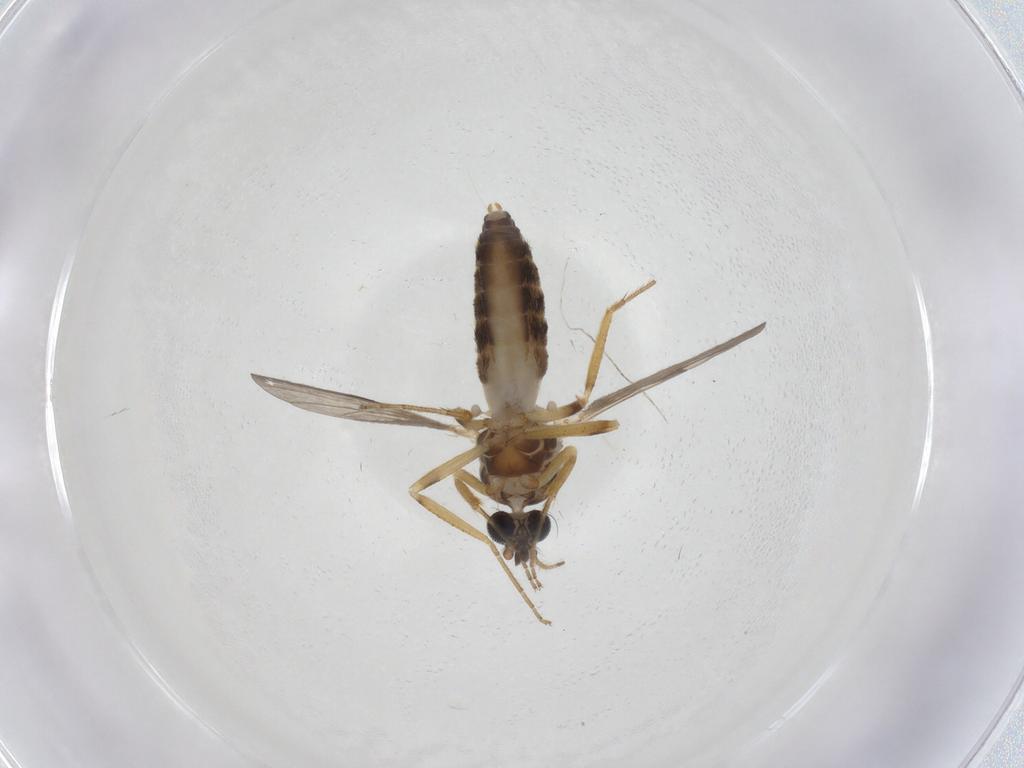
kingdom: Animalia
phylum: Arthropoda
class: Insecta
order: Diptera
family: Ceratopogonidae
